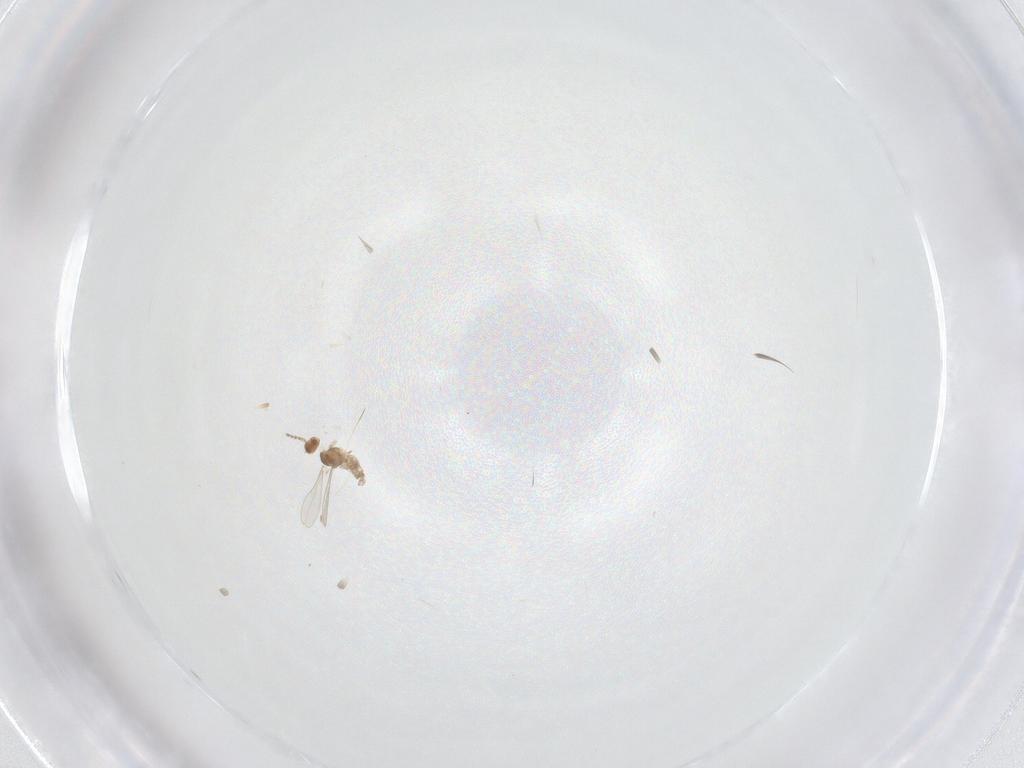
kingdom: Animalia
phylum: Arthropoda
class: Insecta
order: Diptera
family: Cecidomyiidae
